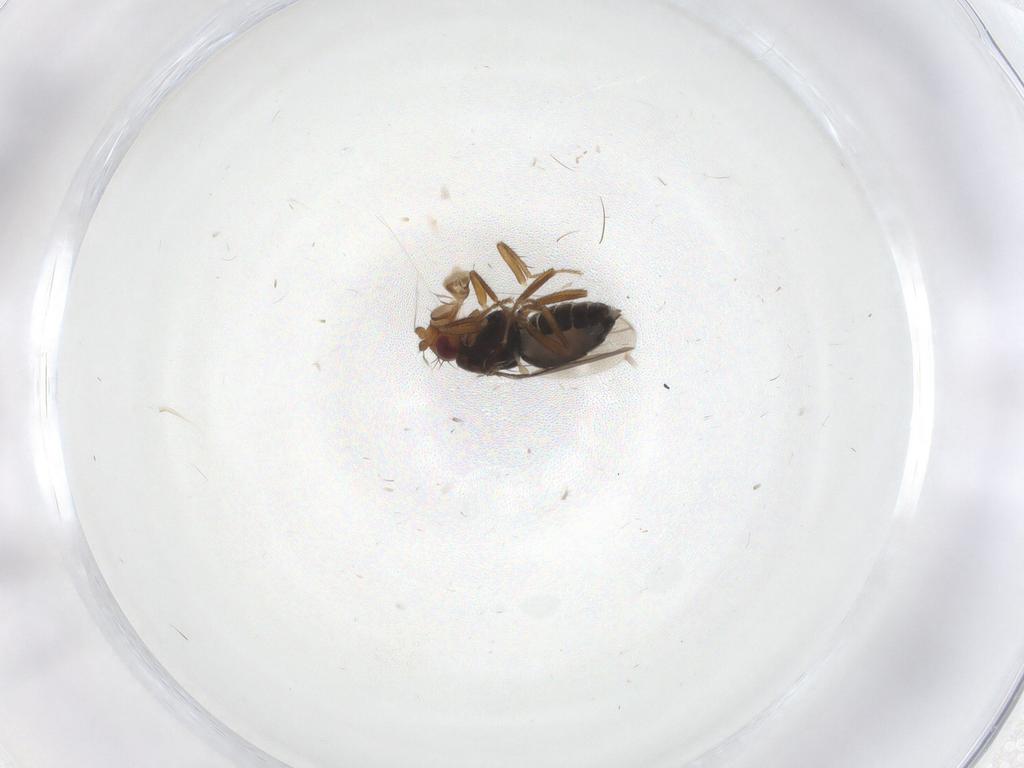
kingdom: Animalia
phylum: Arthropoda
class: Insecta
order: Diptera
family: Sphaeroceridae
